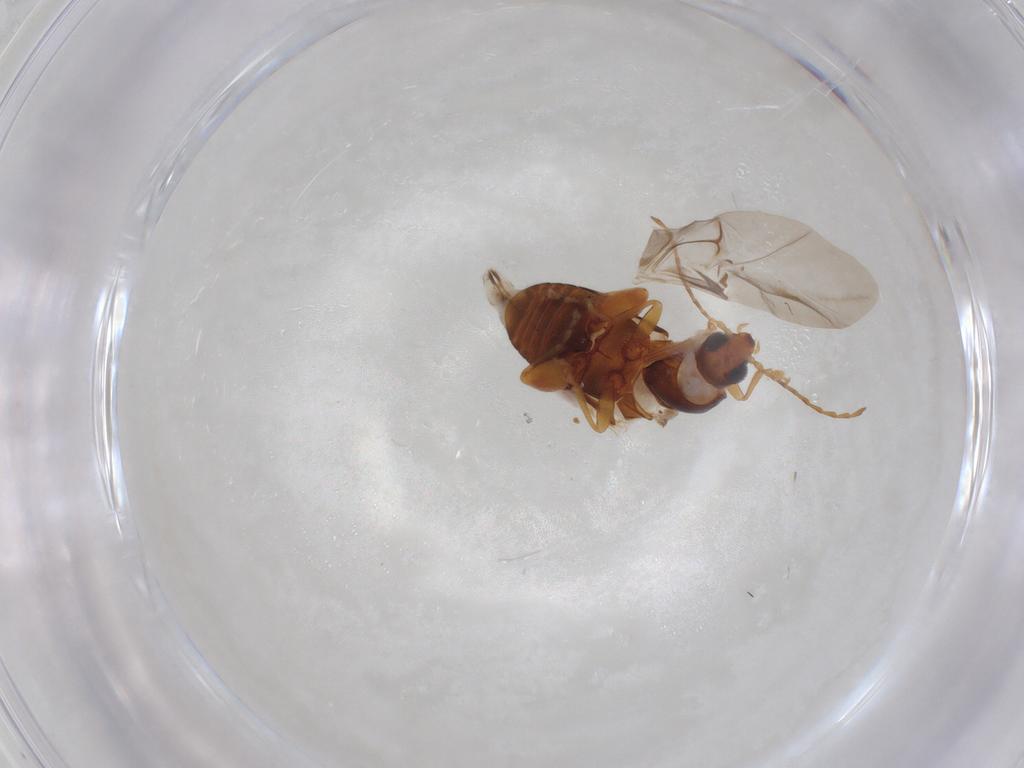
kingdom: Animalia
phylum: Arthropoda
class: Insecta
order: Coleoptera
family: Chrysomelidae
